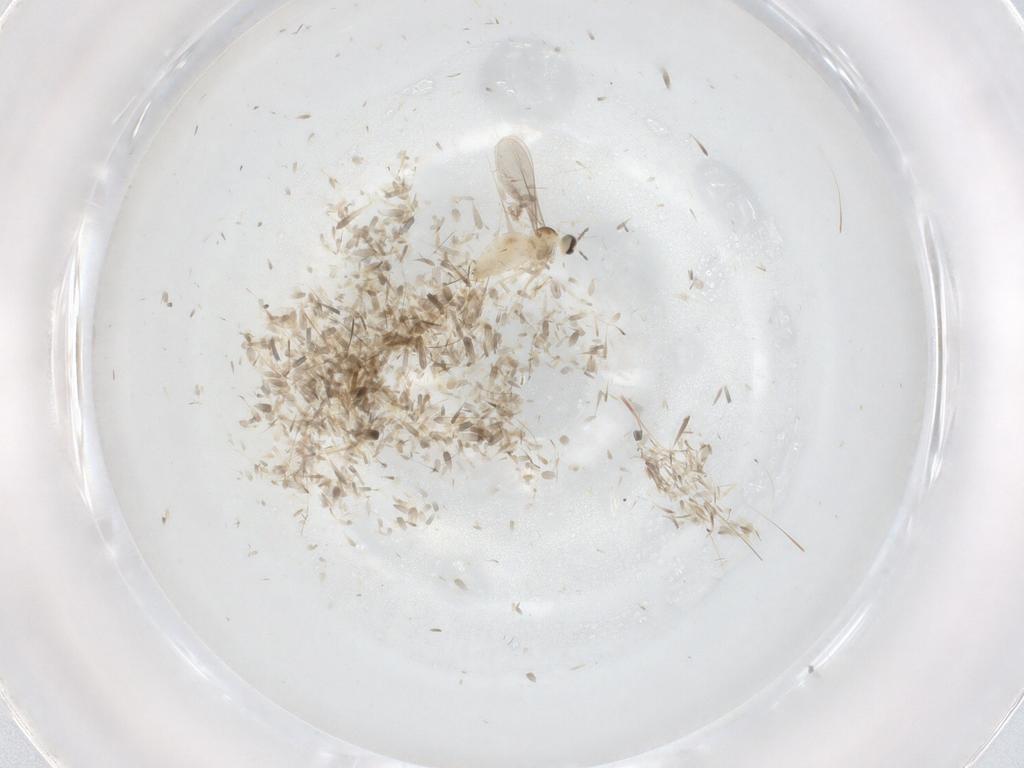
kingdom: Animalia
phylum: Arthropoda
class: Insecta
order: Diptera
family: Cecidomyiidae
